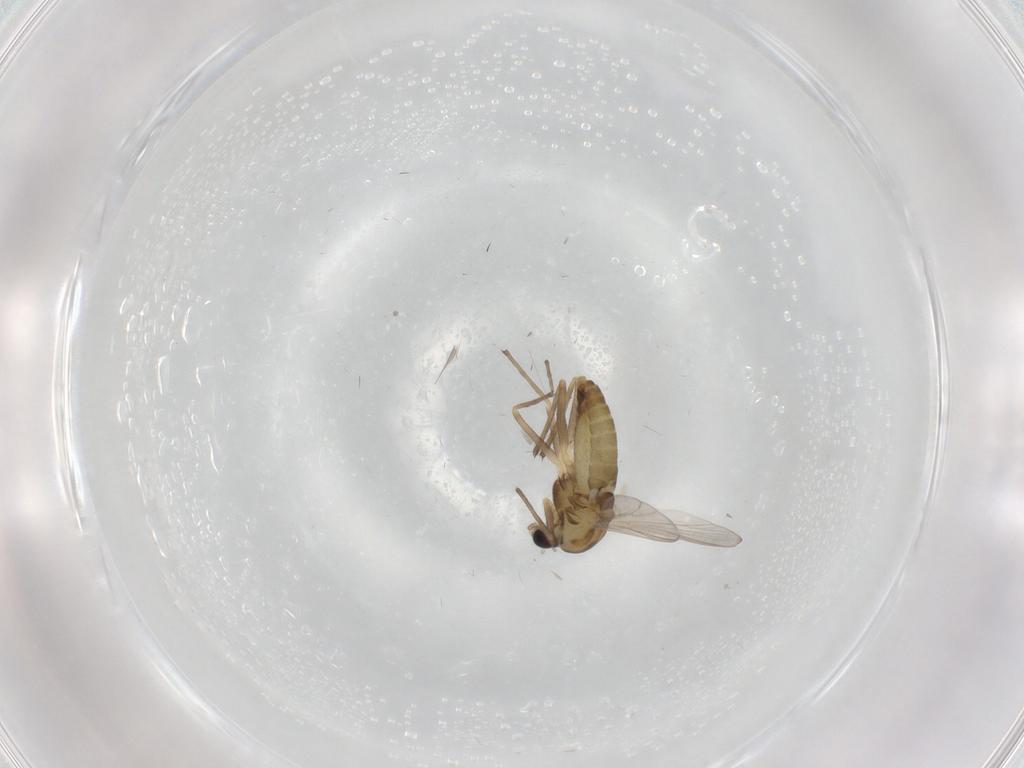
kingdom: Animalia
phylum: Arthropoda
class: Insecta
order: Diptera
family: Chironomidae
